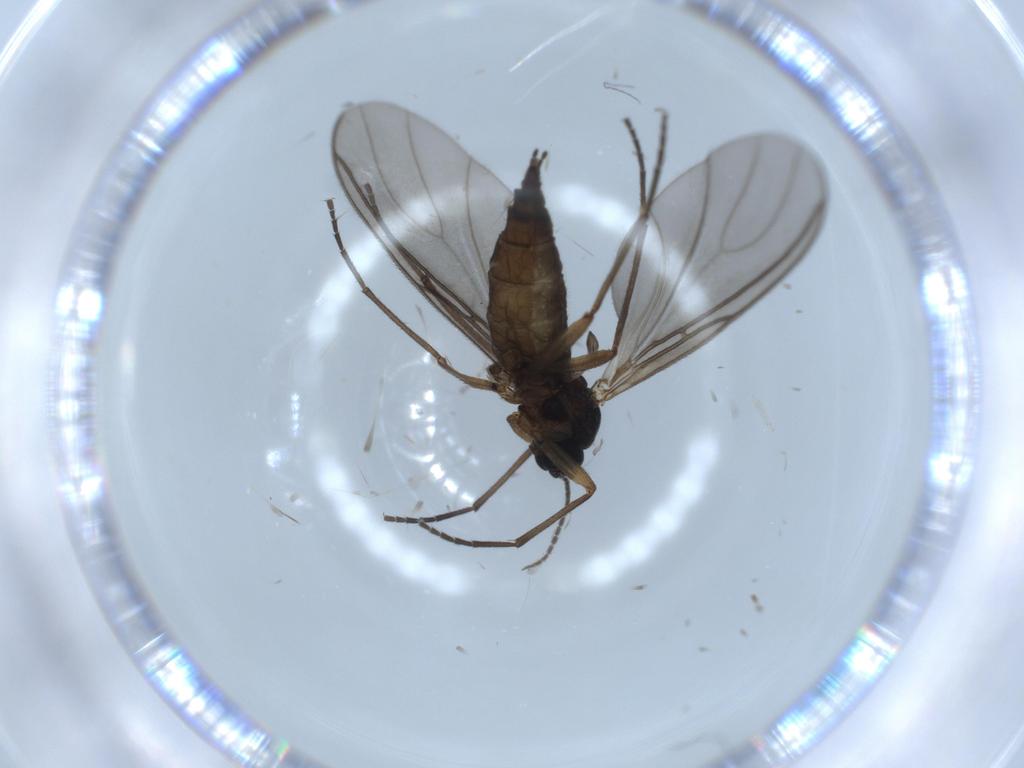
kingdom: Animalia
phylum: Arthropoda
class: Insecta
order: Diptera
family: Sciaridae
